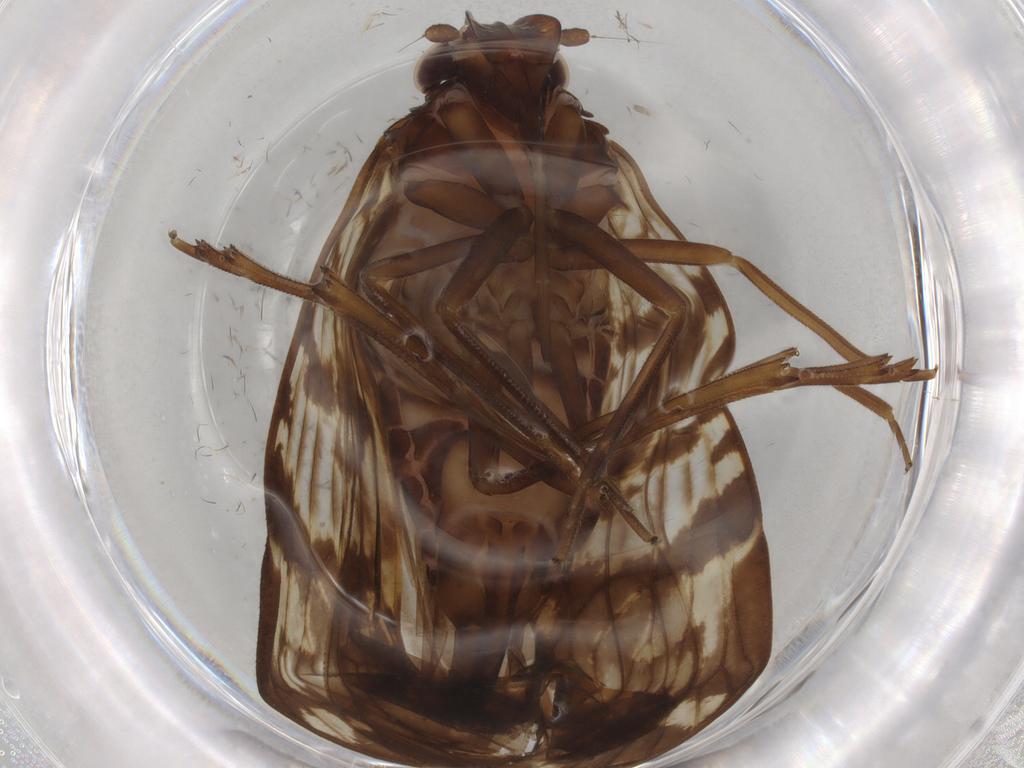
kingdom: Animalia
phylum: Arthropoda
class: Insecta
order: Hemiptera
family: Cixiidae
